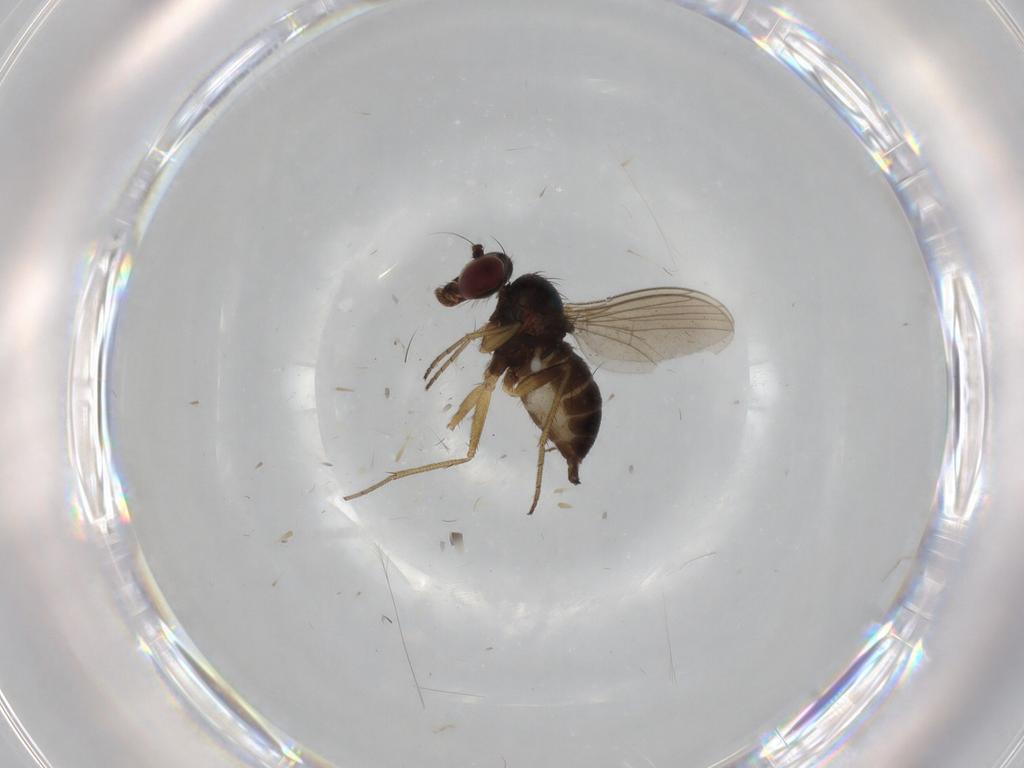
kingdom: Animalia
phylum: Arthropoda
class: Insecta
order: Diptera
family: Dolichopodidae
